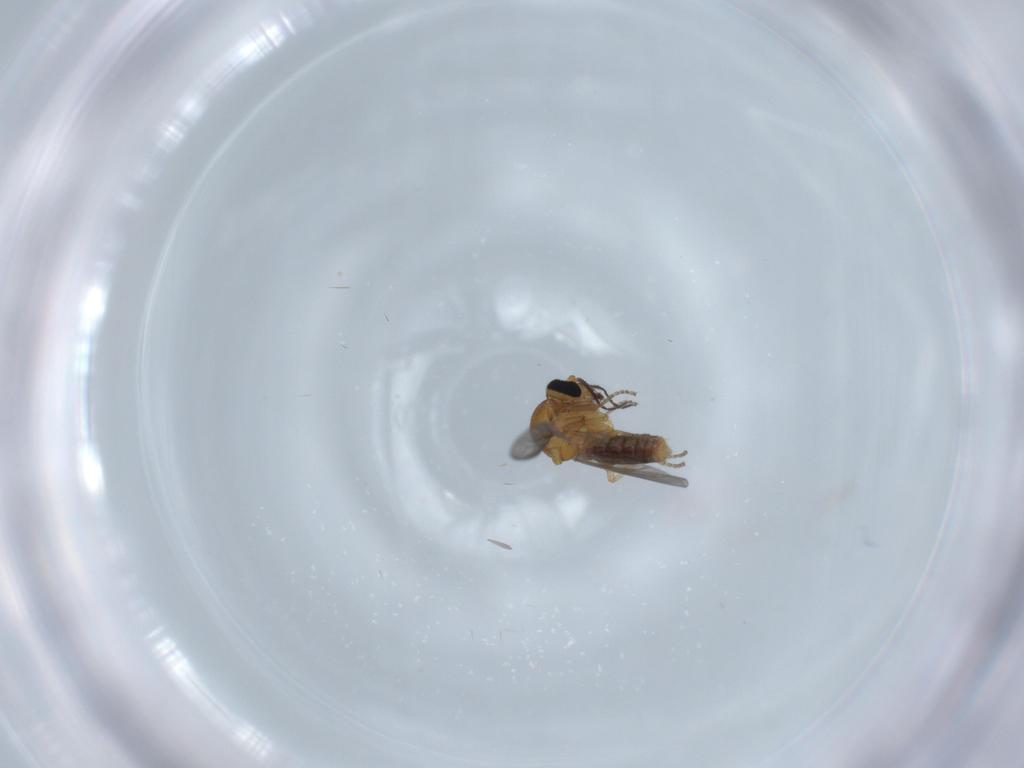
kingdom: Animalia
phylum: Arthropoda
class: Insecta
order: Diptera
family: Ceratopogonidae
